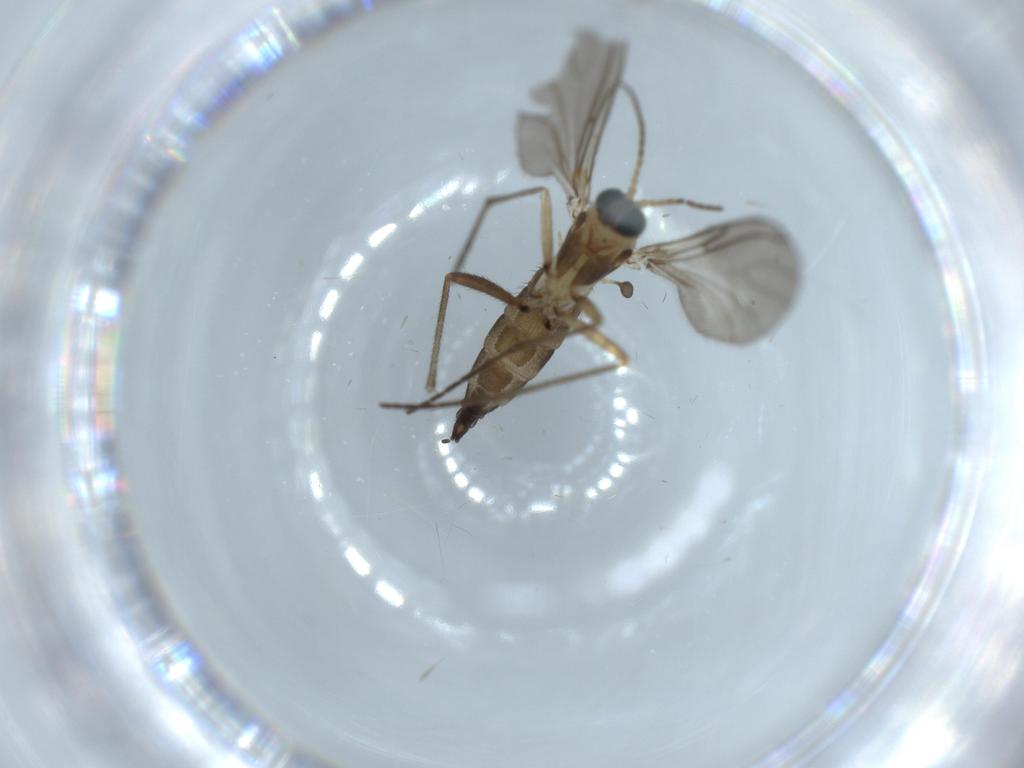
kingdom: Animalia
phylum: Arthropoda
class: Insecta
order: Diptera
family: Sciaridae
